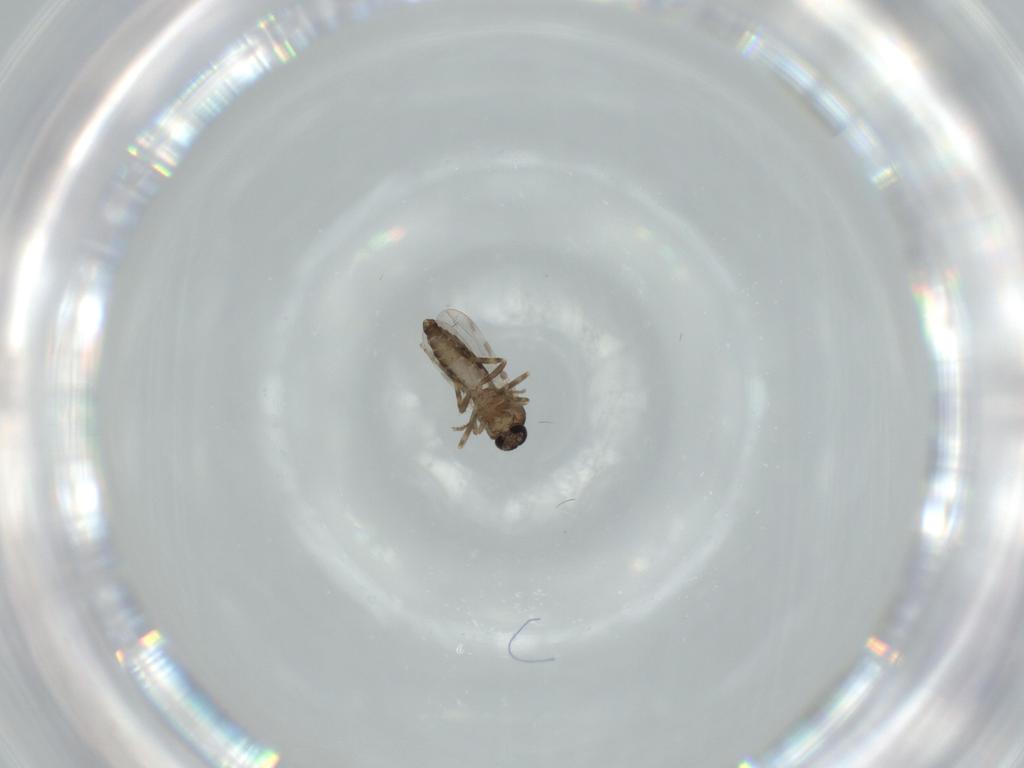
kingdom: Animalia
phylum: Arthropoda
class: Insecta
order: Diptera
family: Ceratopogonidae
